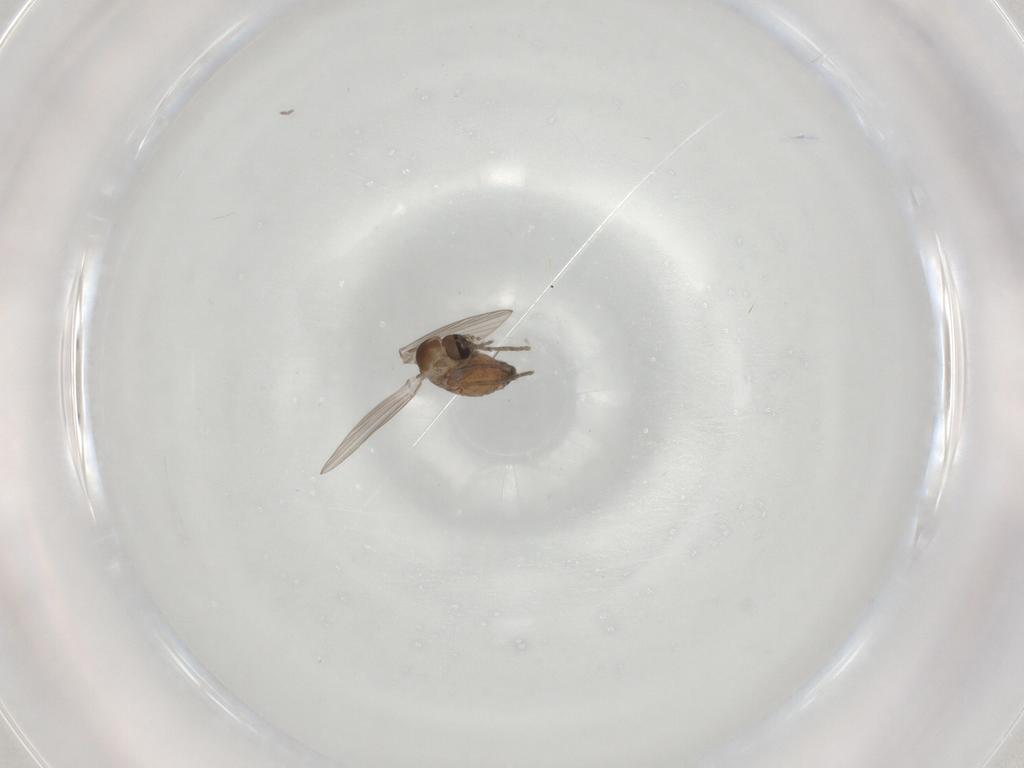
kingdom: Animalia
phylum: Arthropoda
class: Insecta
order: Diptera
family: Psychodidae
